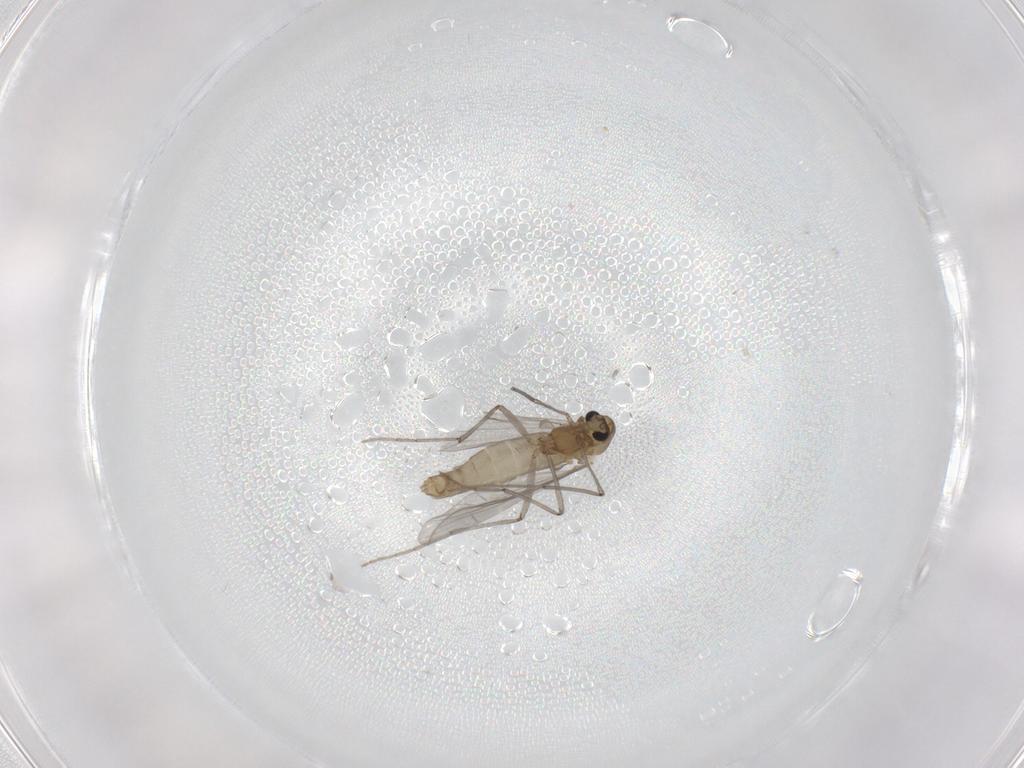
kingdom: Animalia
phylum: Arthropoda
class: Insecta
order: Diptera
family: Chironomidae
